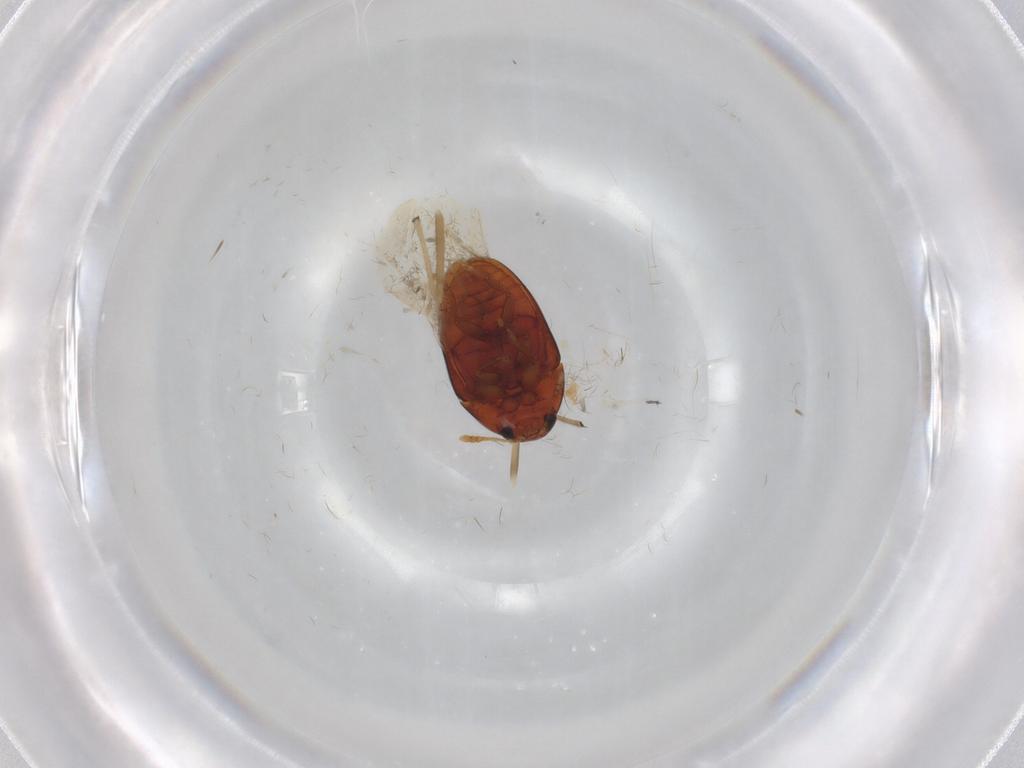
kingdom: Animalia
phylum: Arthropoda
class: Insecta
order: Coleoptera
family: Phalacridae
